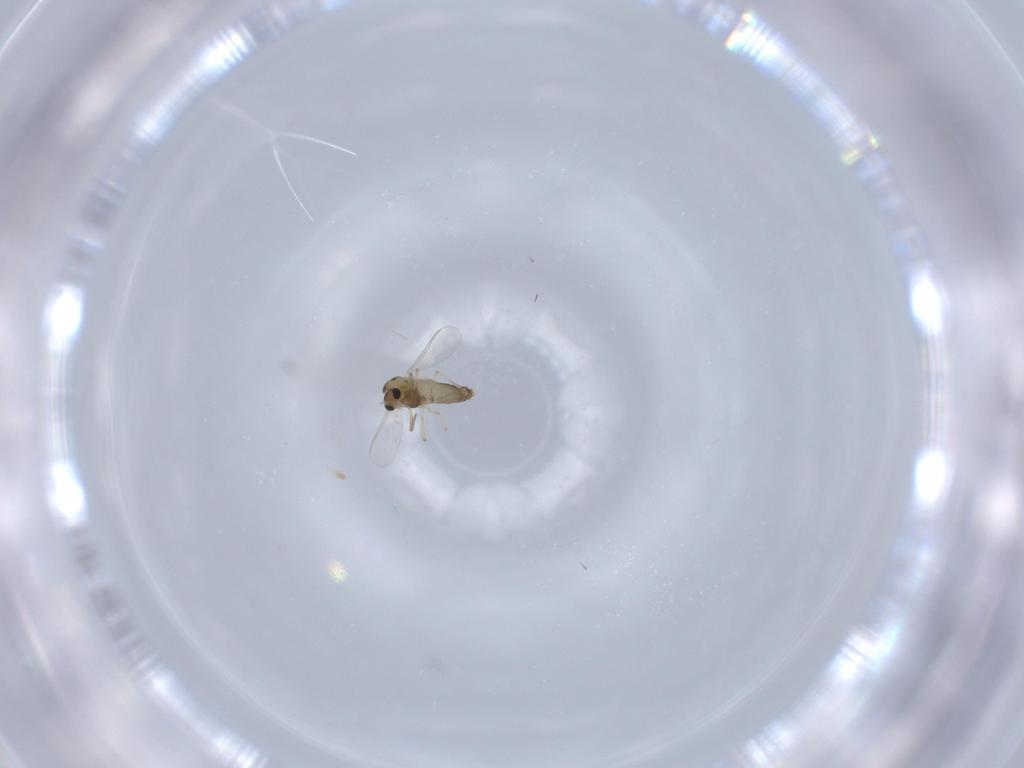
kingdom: Animalia
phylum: Arthropoda
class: Insecta
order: Diptera
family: Chironomidae
